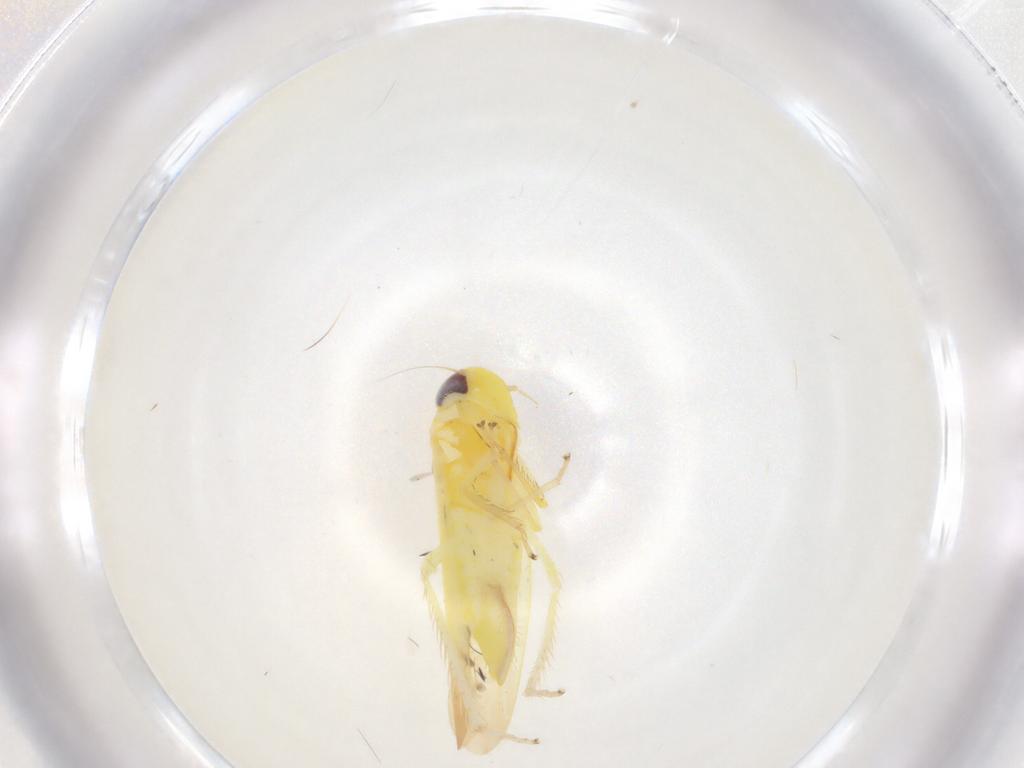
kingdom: Animalia
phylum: Arthropoda
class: Insecta
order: Hemiptera
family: Cicadellidae
